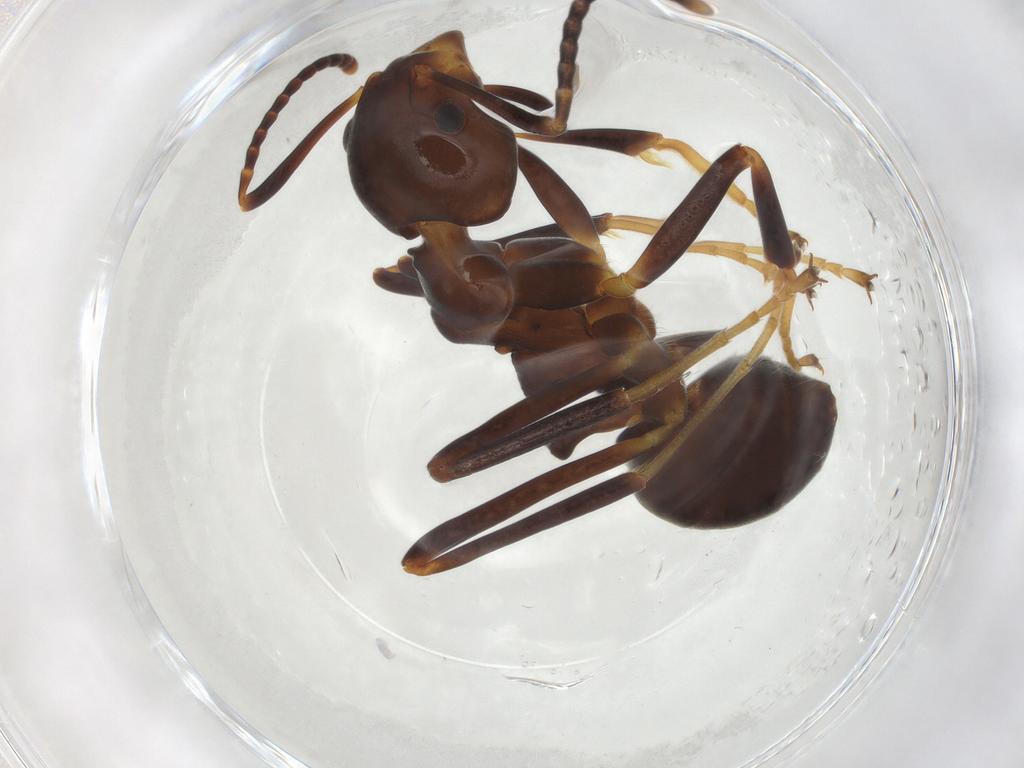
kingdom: Animalia
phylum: Arthropoda
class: Insecta
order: Hymenoptera
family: Formicidae
